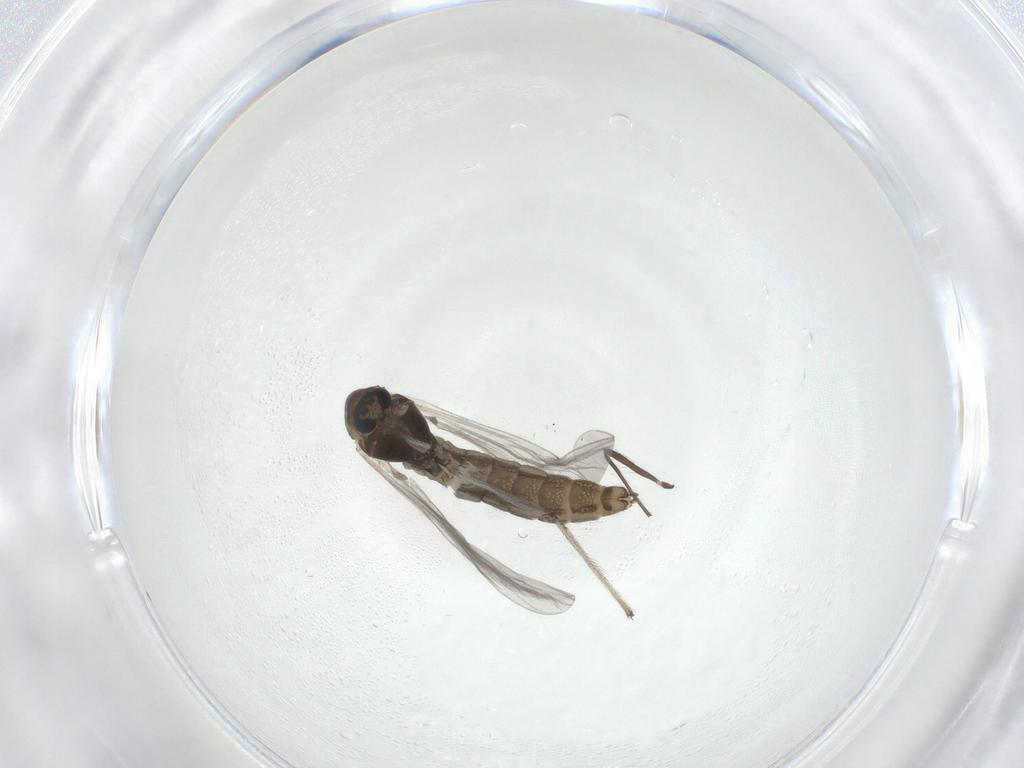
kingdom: Animalia
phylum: Arthropoda
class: Insecta
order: Diptera
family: Chironomidae
